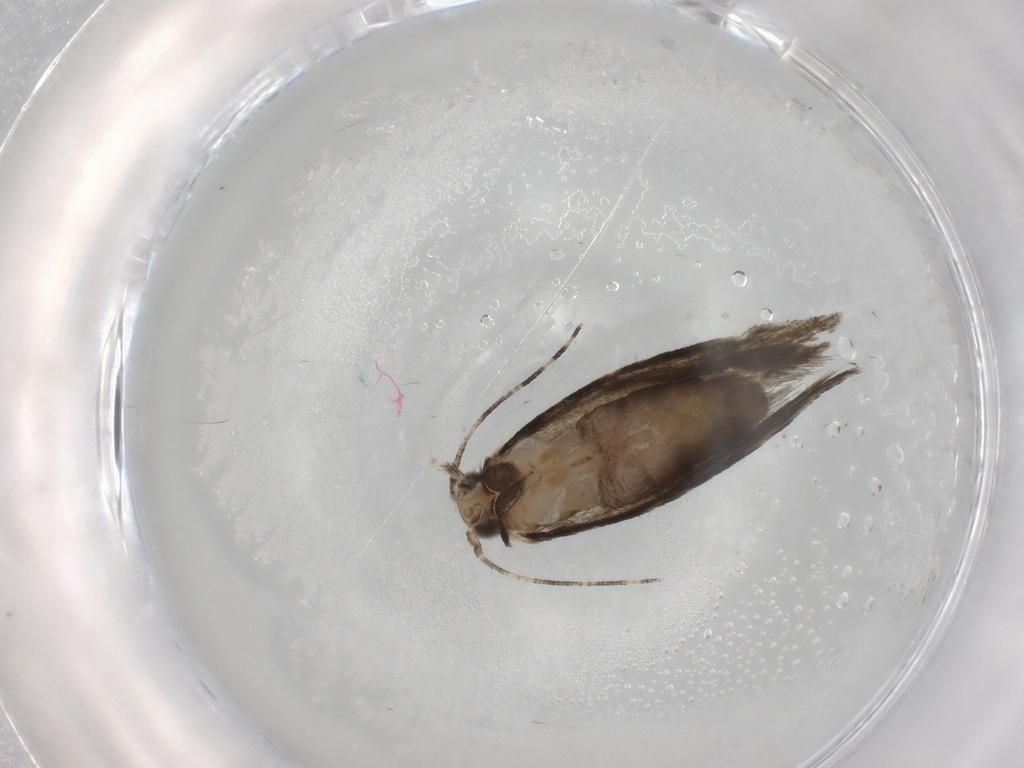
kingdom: Animalia
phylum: Arthropoda
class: Insecta
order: Lepidoptera
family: Tineidae
